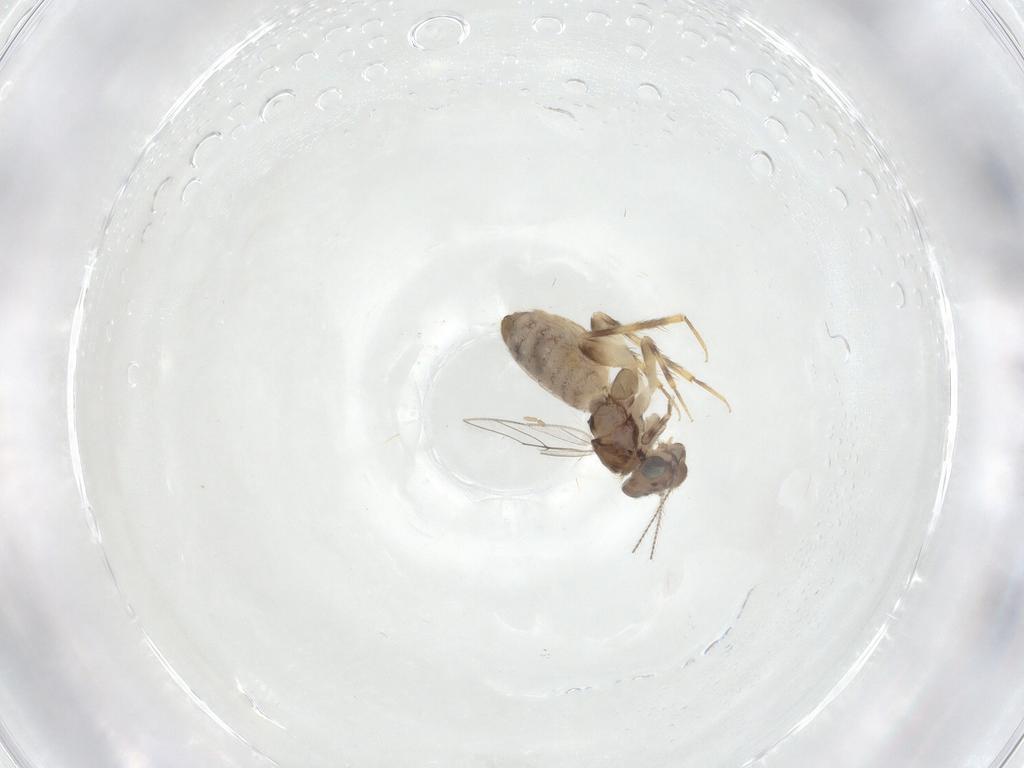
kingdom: Animalia
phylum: Arthropoda
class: Insecta
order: Psocodea
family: Lepidopsocidae
